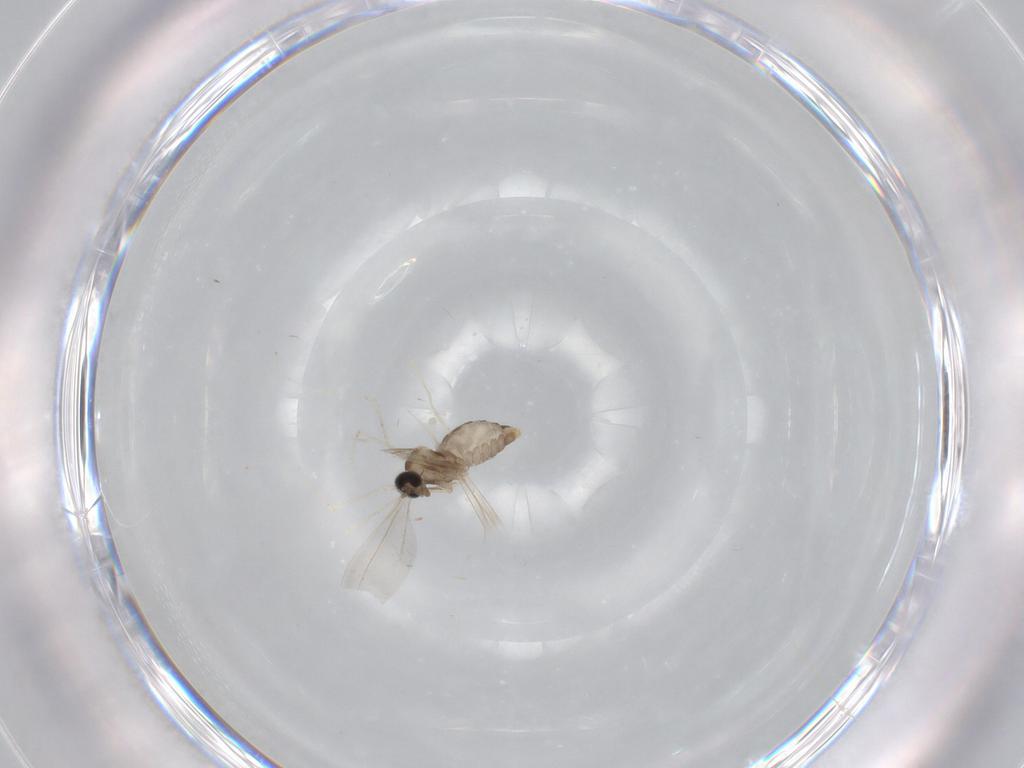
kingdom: Animalia
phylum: Arthropoda
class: Insecta
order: Diptera
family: Cecidomyiidae
